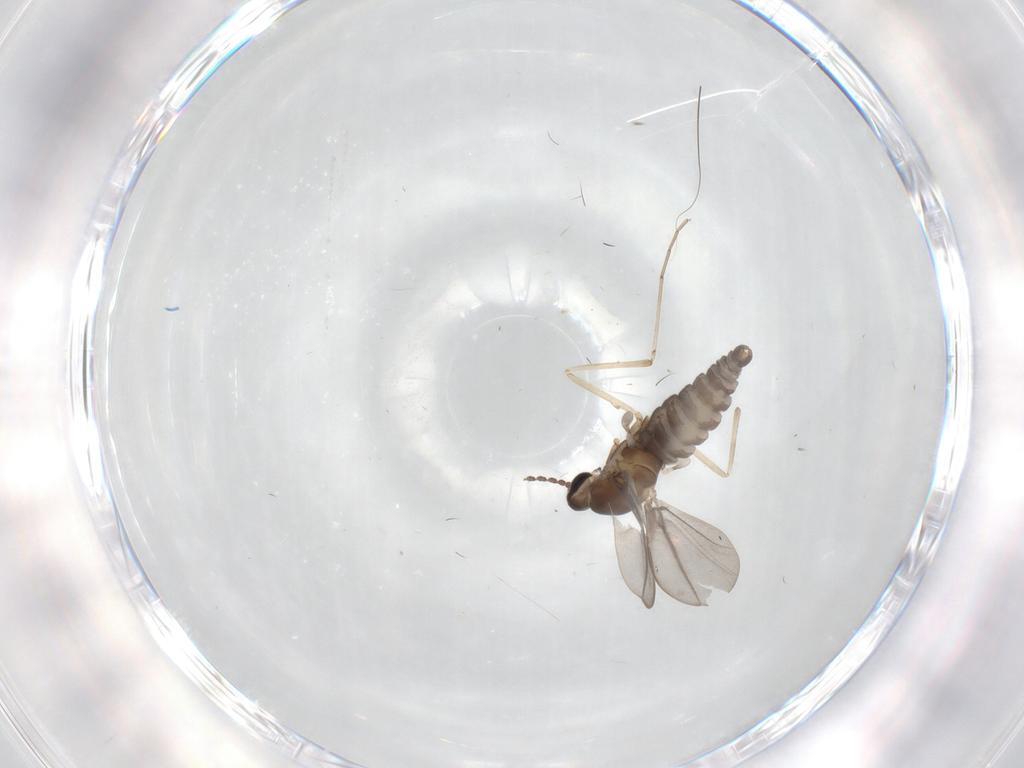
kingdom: Animalia
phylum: Arthropoda
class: Insecta
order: Diptera
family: Cecidomyiidae
